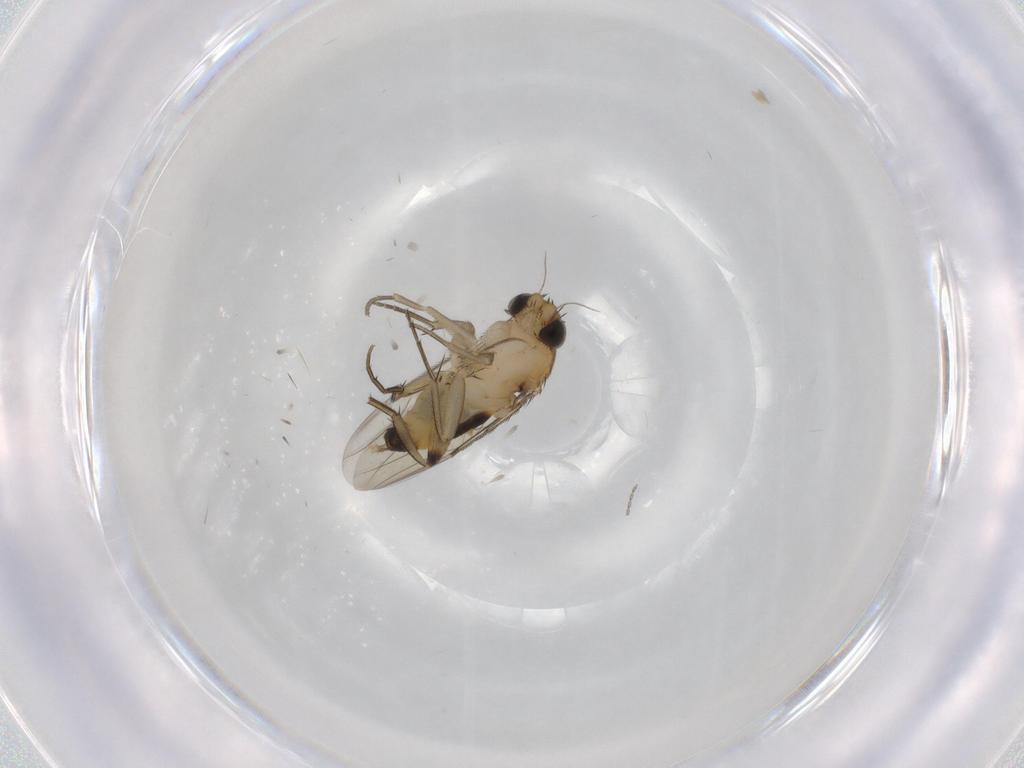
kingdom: Animalia
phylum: Arthropoda
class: Insecta
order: Diptera
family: Phoridae
